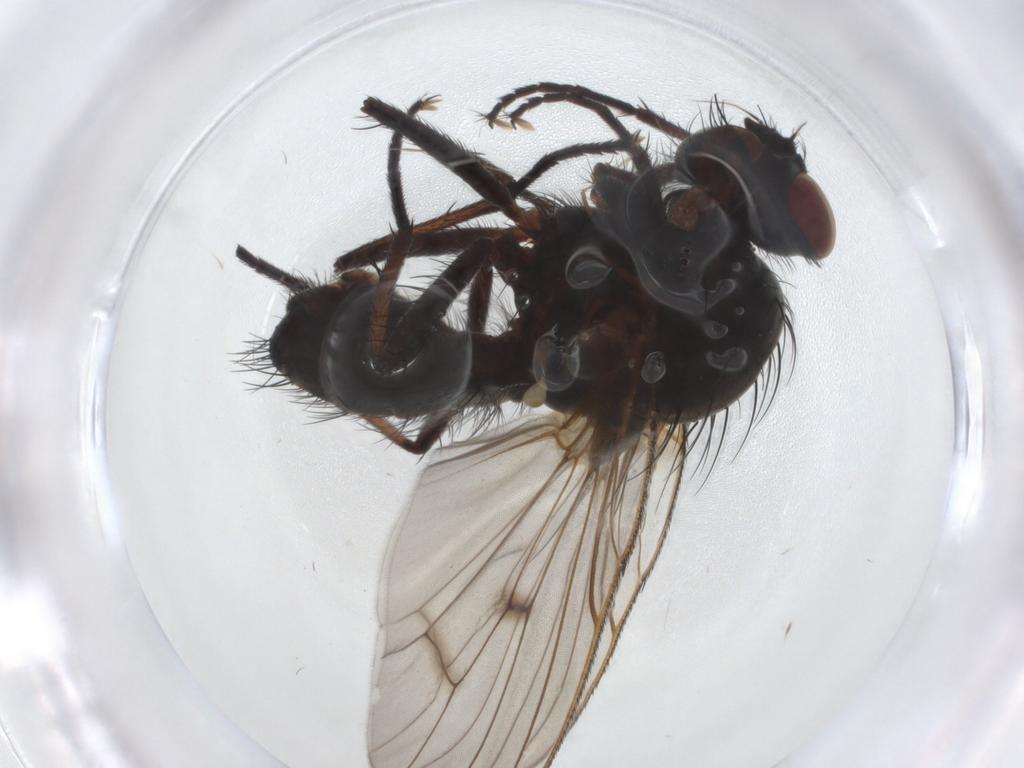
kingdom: Animalia
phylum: Arthropoda
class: Insecta
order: Diptera
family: Anthomyiidae
